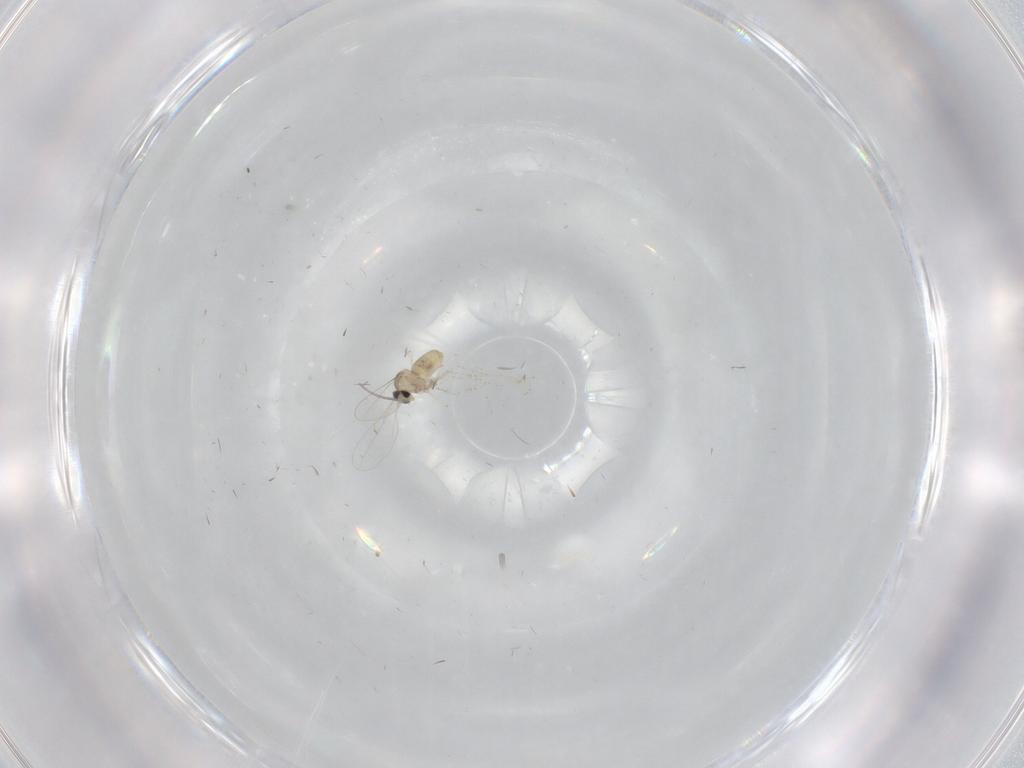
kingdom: Animalia
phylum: Arthropoda
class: Insecta
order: Diptera
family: Cecidomyiidae
